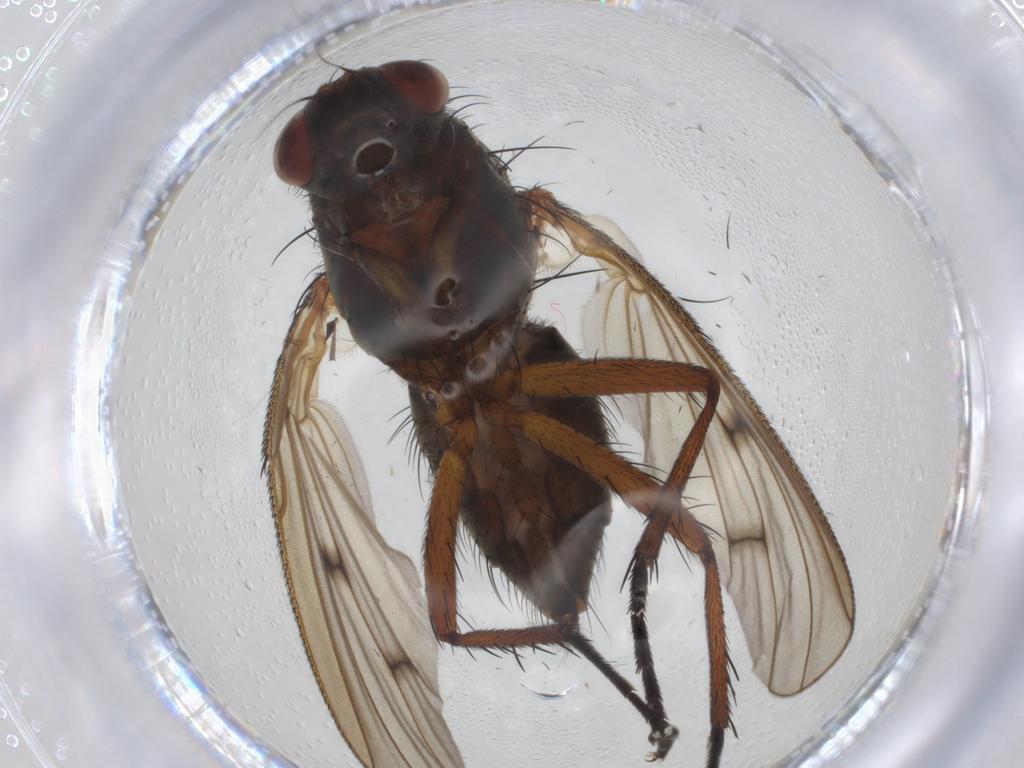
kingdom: Animalia
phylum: Arthropoda
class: Insecta
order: Diptera
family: Anthomyiidae
